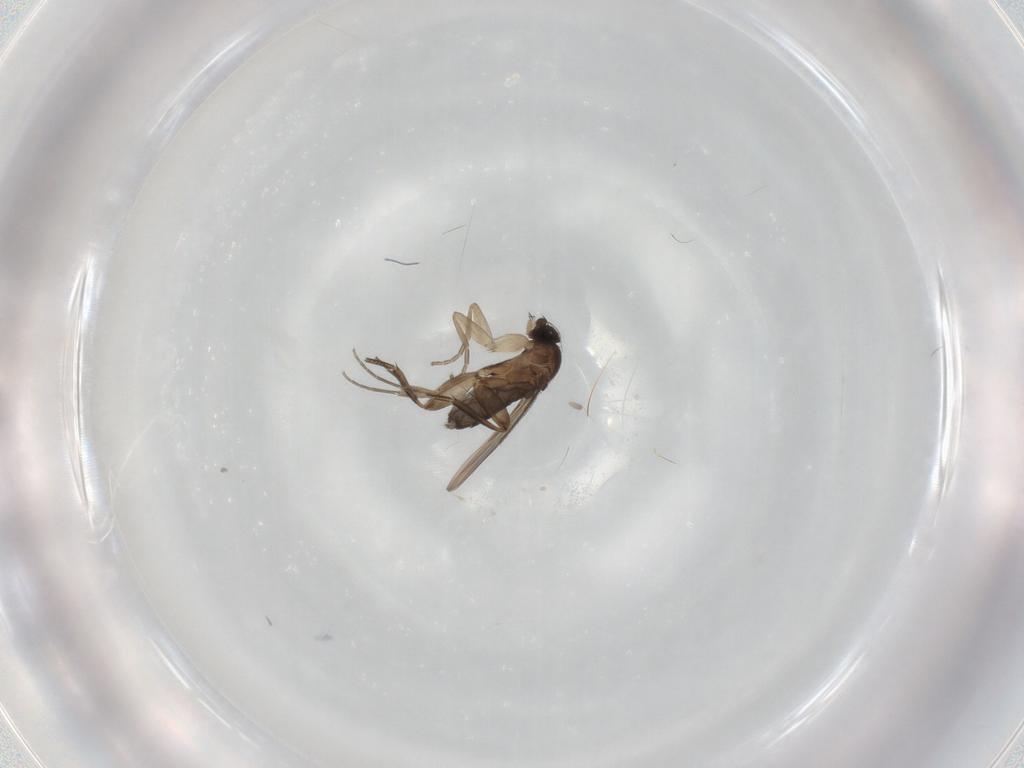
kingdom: Animalia
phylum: Arthropoda
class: Insecta
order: Diptera
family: Phoridae
